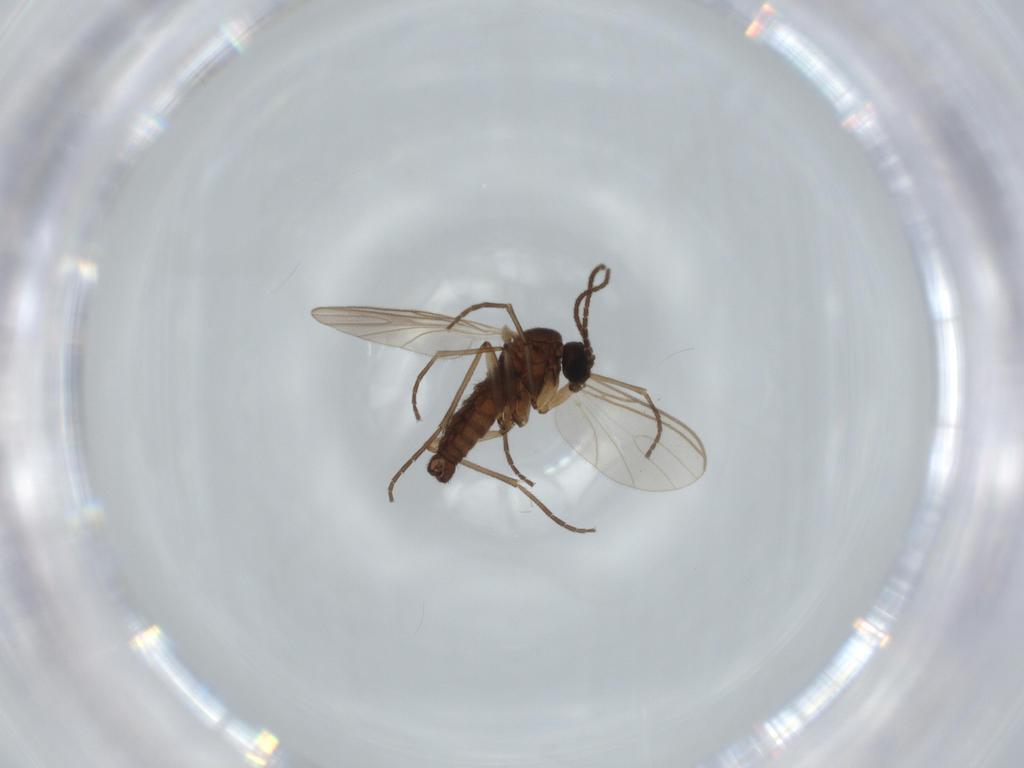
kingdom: Animalia
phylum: Arthropoda
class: Insecta
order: Diptera
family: Sciaridae
